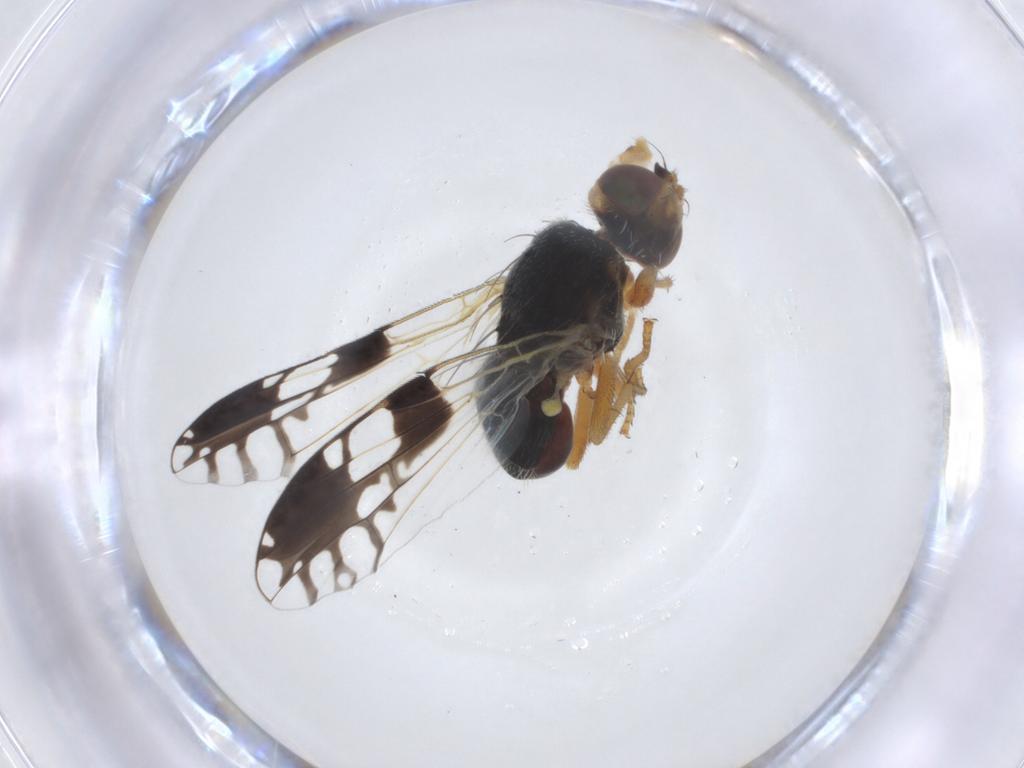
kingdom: Animalia
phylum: Arthropoda
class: Insecta
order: Diptera
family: Tephritidae
